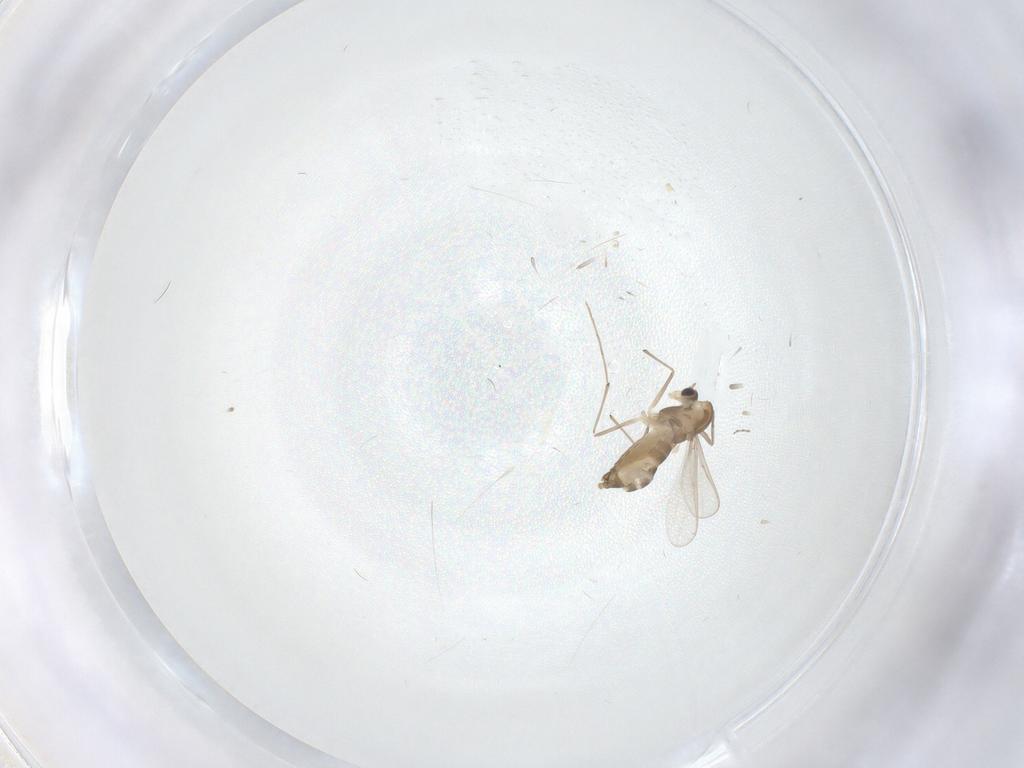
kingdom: Animalia
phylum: Arthropoda
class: Insecta
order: Diptera
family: Chironomidae
